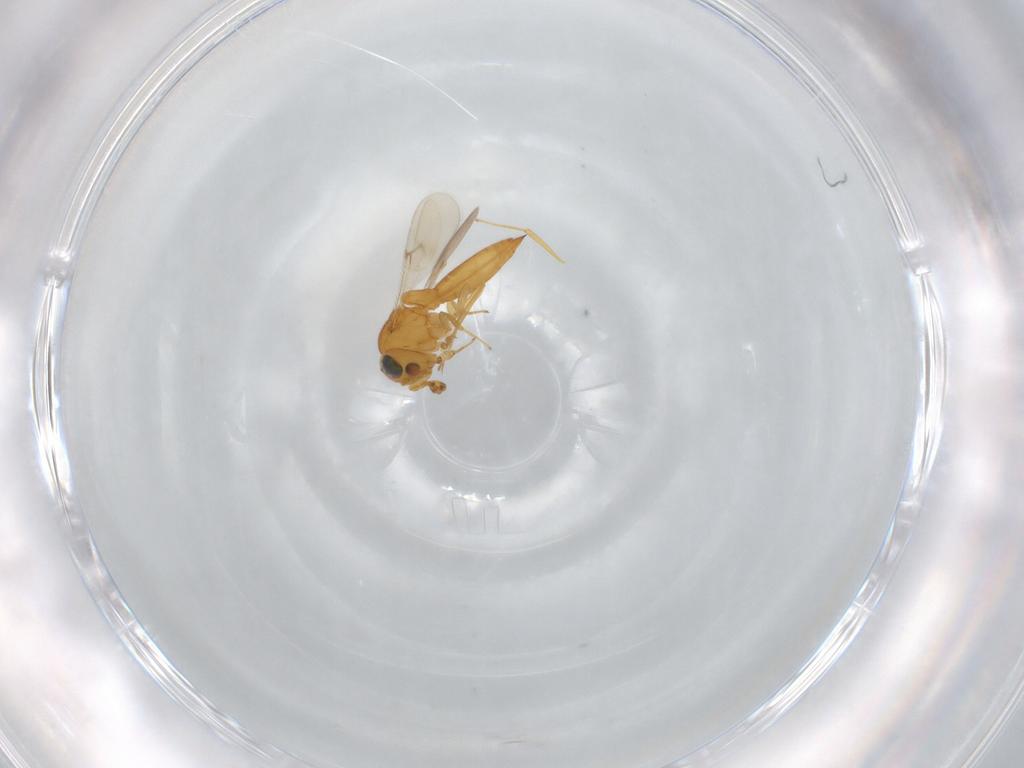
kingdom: Animalia
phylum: Arthropoda
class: Insecta
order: Hymenoptera
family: Scelionidae
